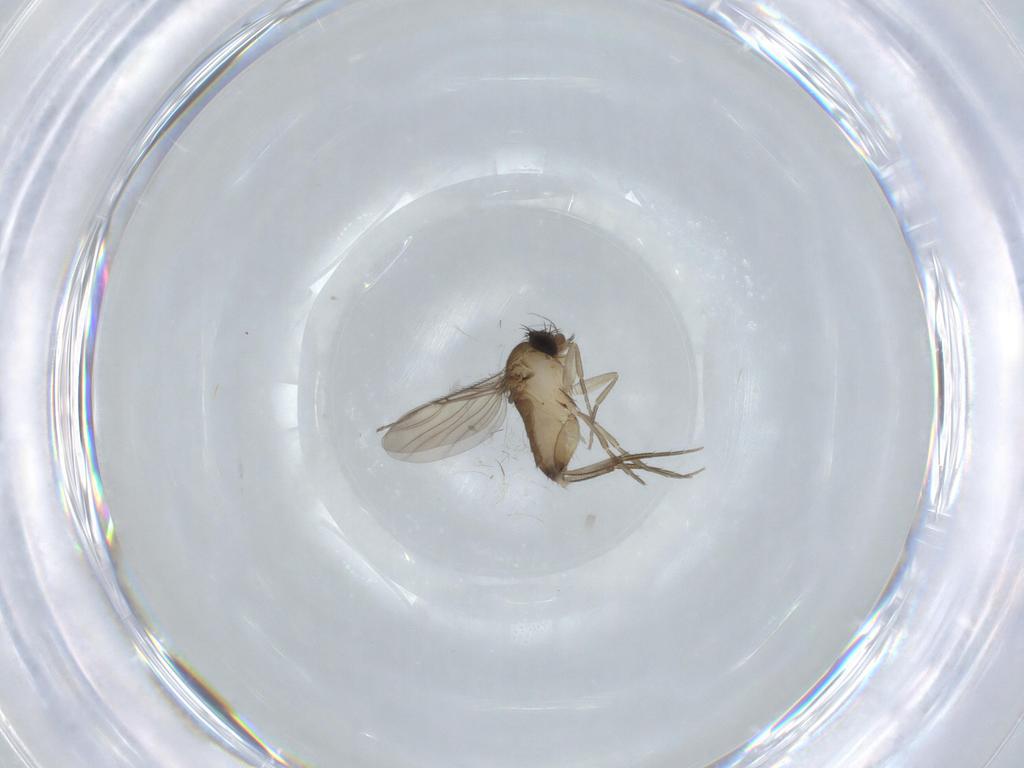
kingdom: Animalia
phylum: Arthropoda
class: Insecta
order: Diptera
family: Phoridae
